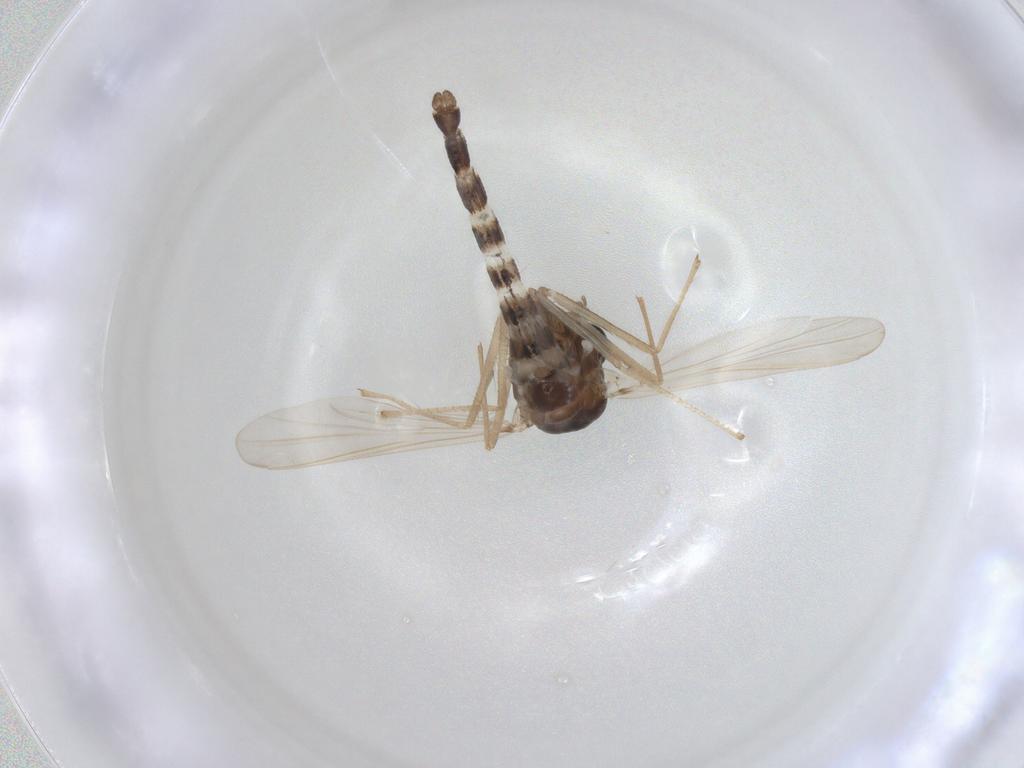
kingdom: Animalia
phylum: Arthropoda
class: Insecta
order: Diptera
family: Chironomidae
